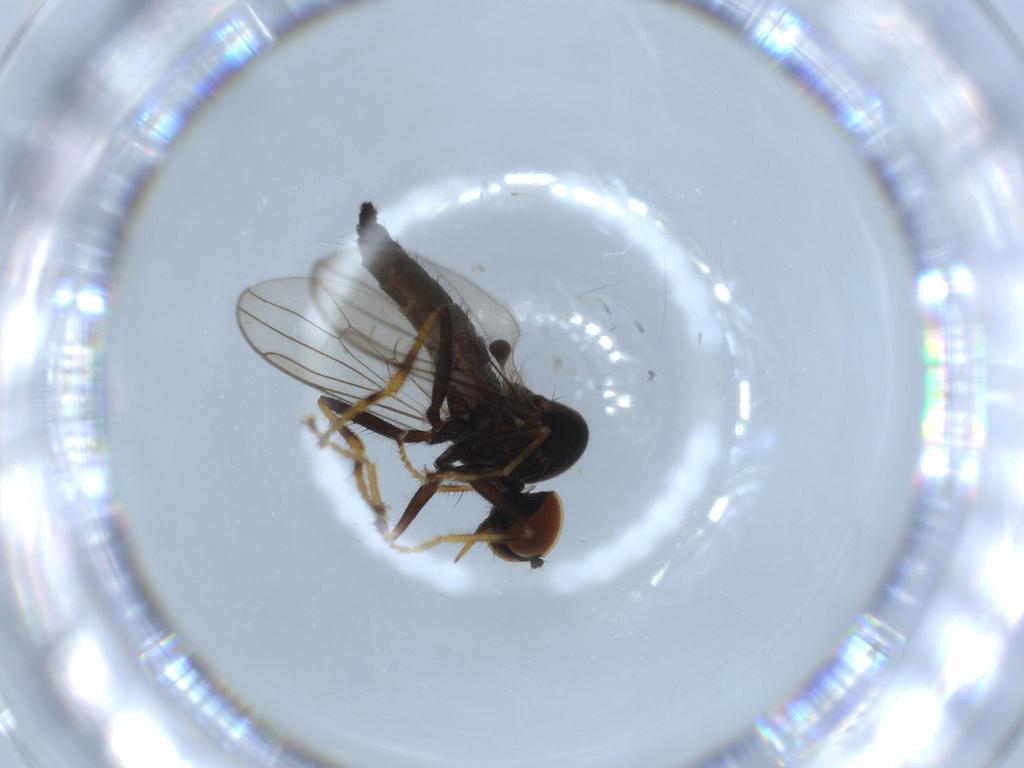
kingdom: Animalia
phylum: Arthropoda
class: Insecta
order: Diptera
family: Hybotidae
